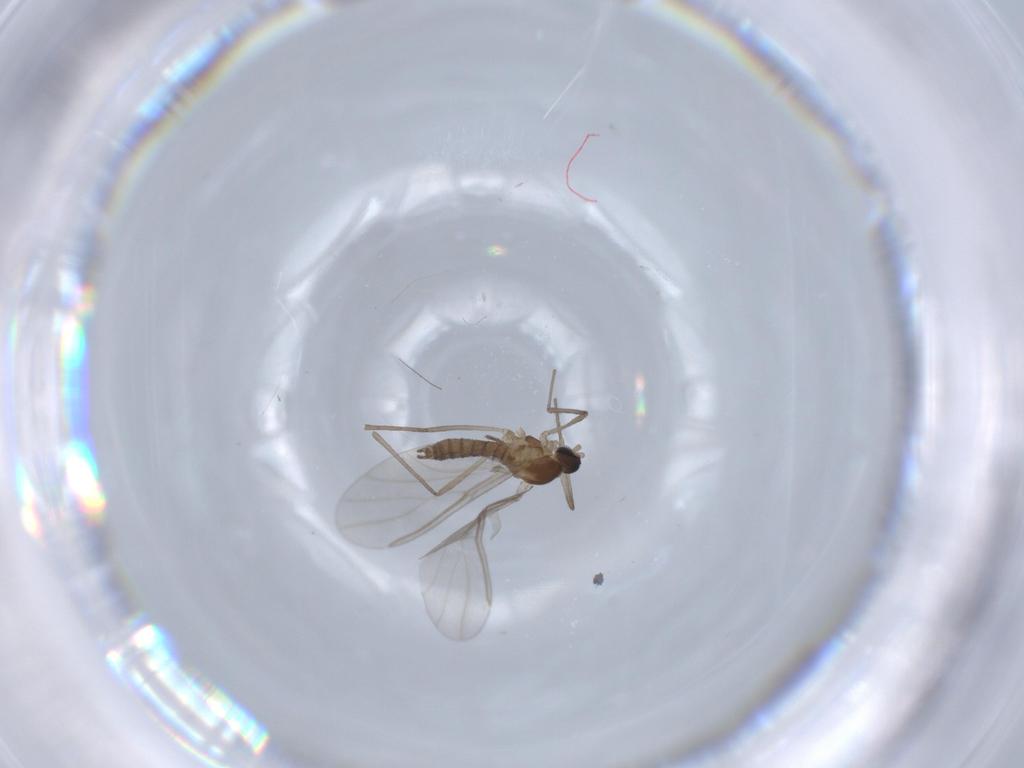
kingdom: Animalia
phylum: Arthropoda
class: Insecta
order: Diptera
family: Cecidomyiidae
